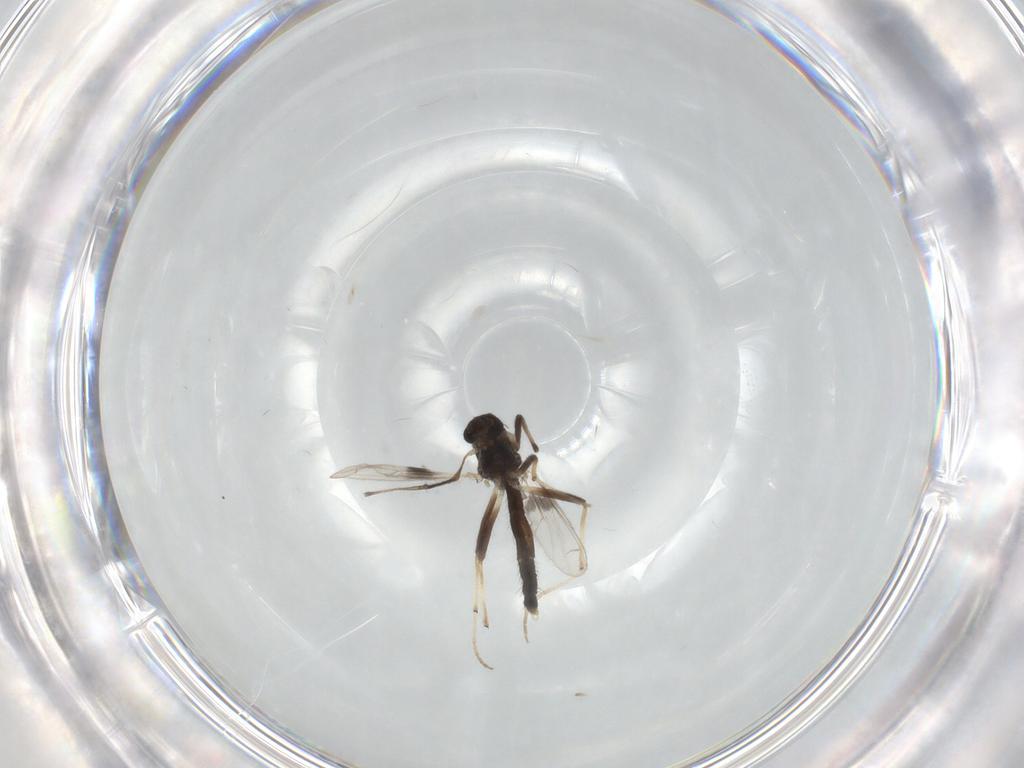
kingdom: Animalia
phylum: Arthropoda
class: Insecta
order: Diptera
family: Chironomidae
